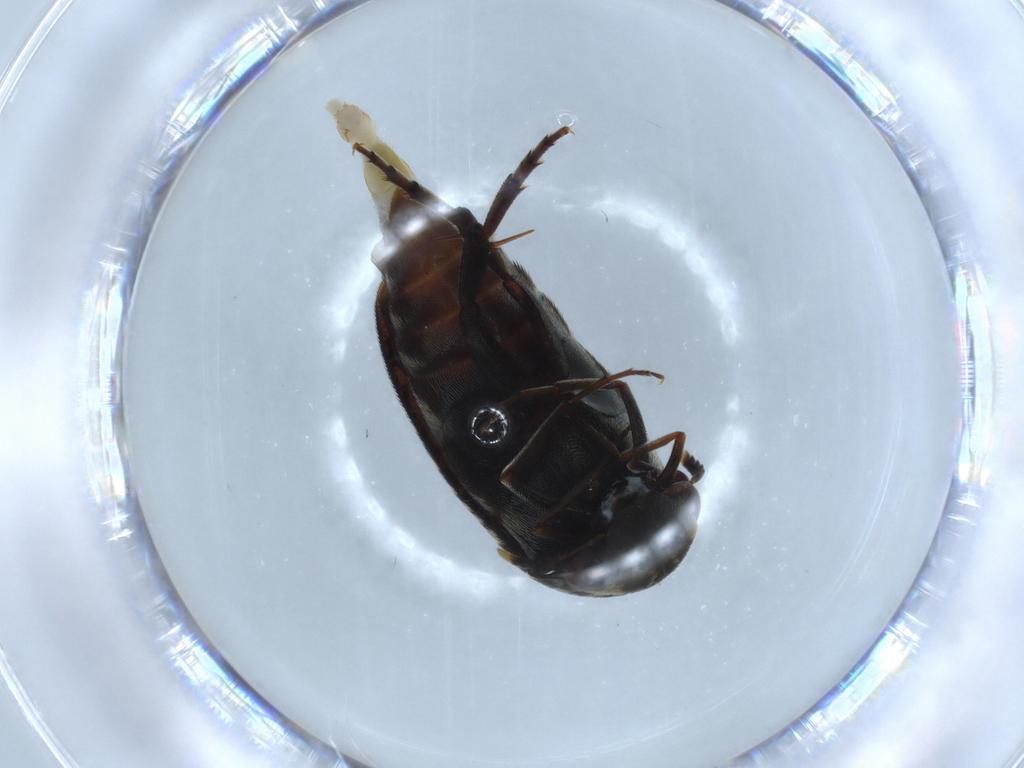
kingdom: Animalia
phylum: Arthropoda
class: Insecta
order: Coleoptera
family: Mordellidae
